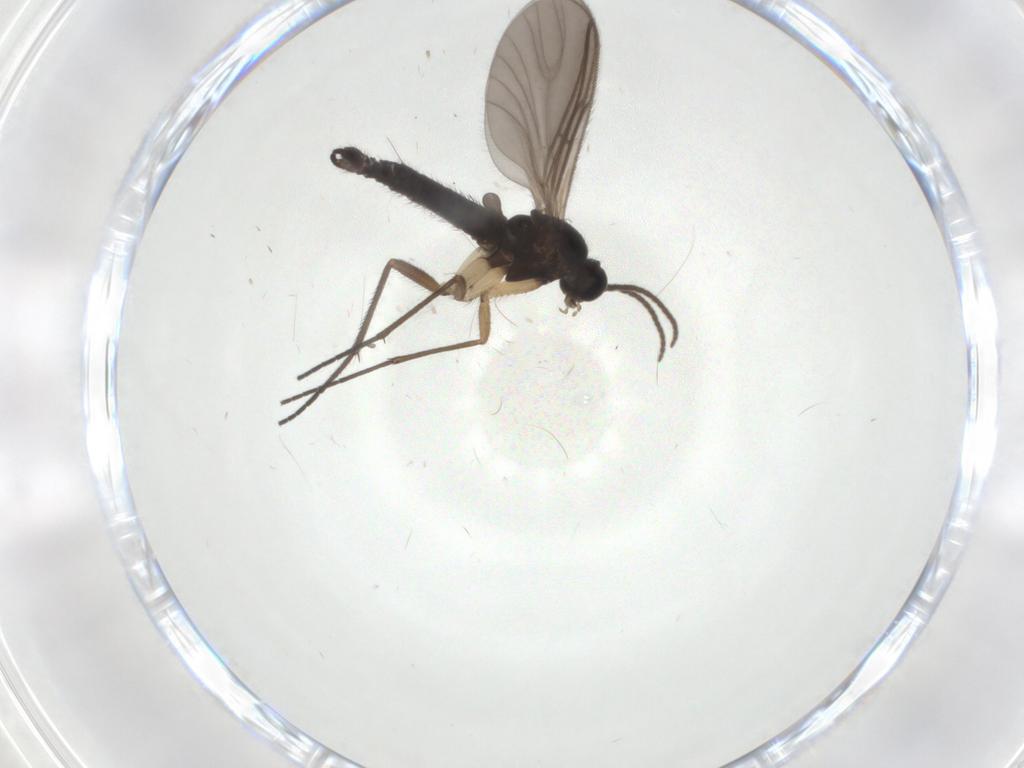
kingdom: Animalia
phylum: Arthropoda
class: Insecta
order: Diptera
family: Sciaridae
